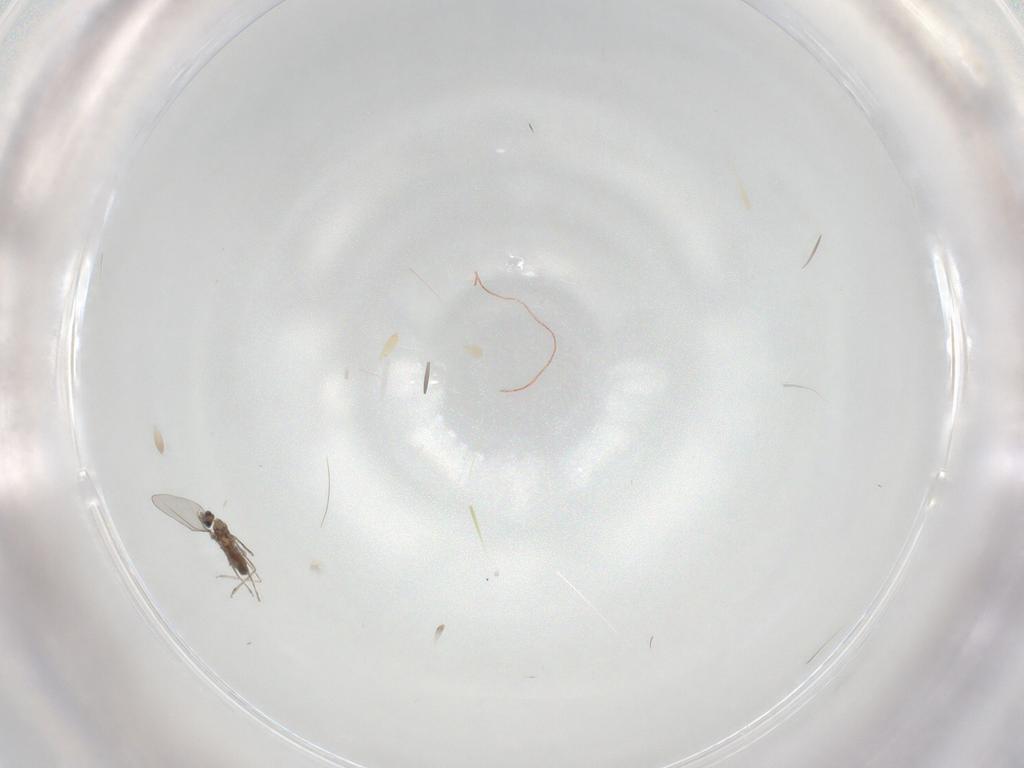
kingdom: Animalia
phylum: Arthropoda
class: Insecta
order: Diptera
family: Cecidomyiidae
